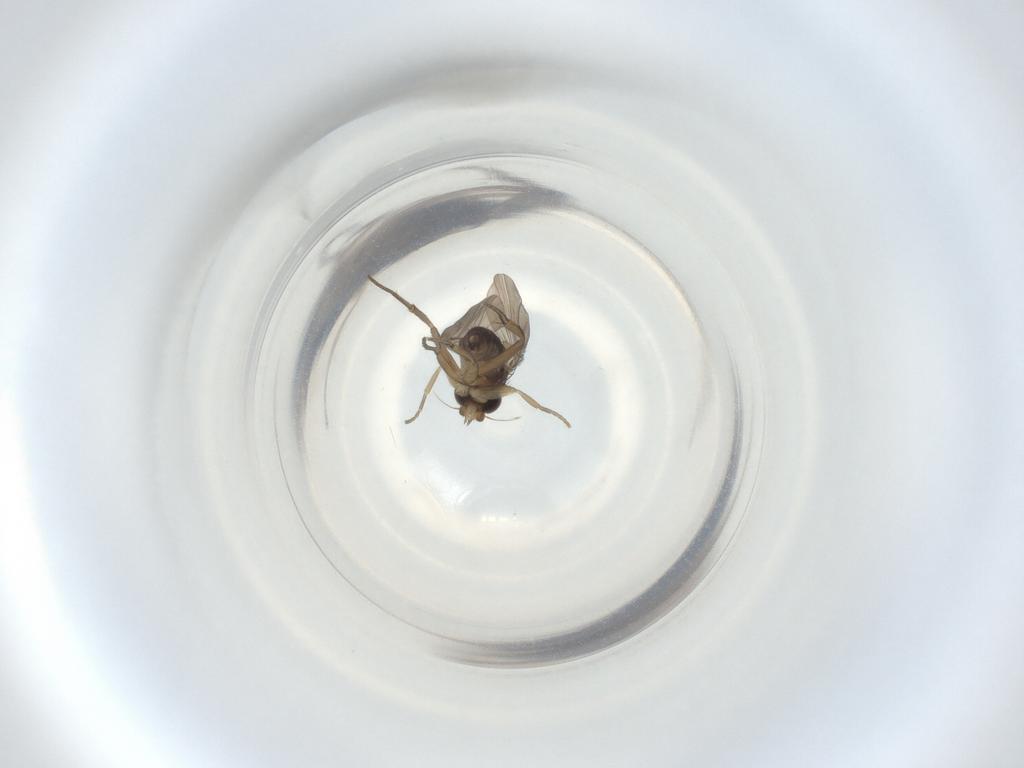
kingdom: Animalia
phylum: Arthropoda
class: Insecta
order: Diptera
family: Phoridae
